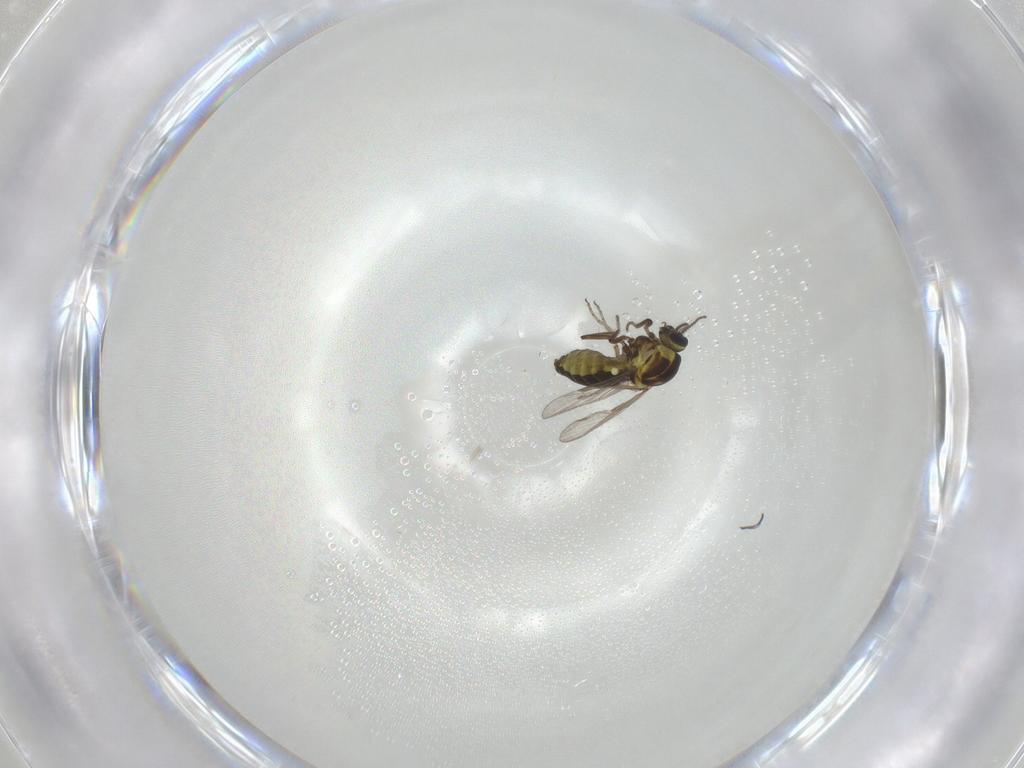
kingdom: Animalia
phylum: Arthropoda
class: Insecta
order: Diptera
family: Ceratopogonidae
